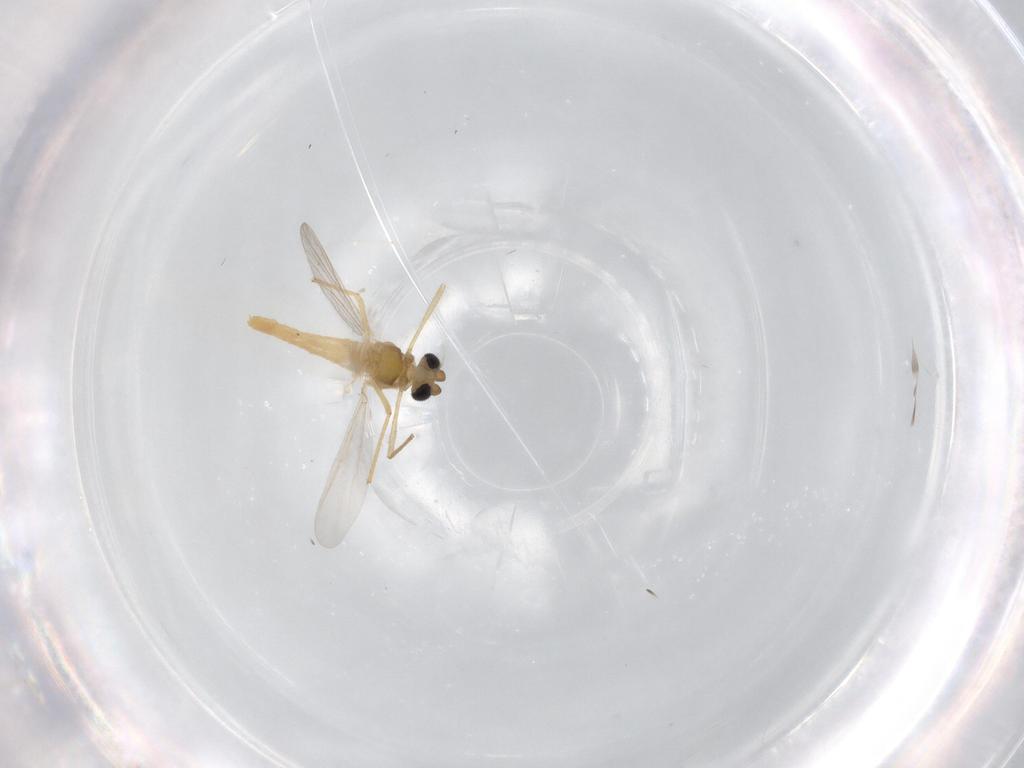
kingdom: Animalia
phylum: Arthropoda
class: Insecta
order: Diptera
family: Chironomidae
